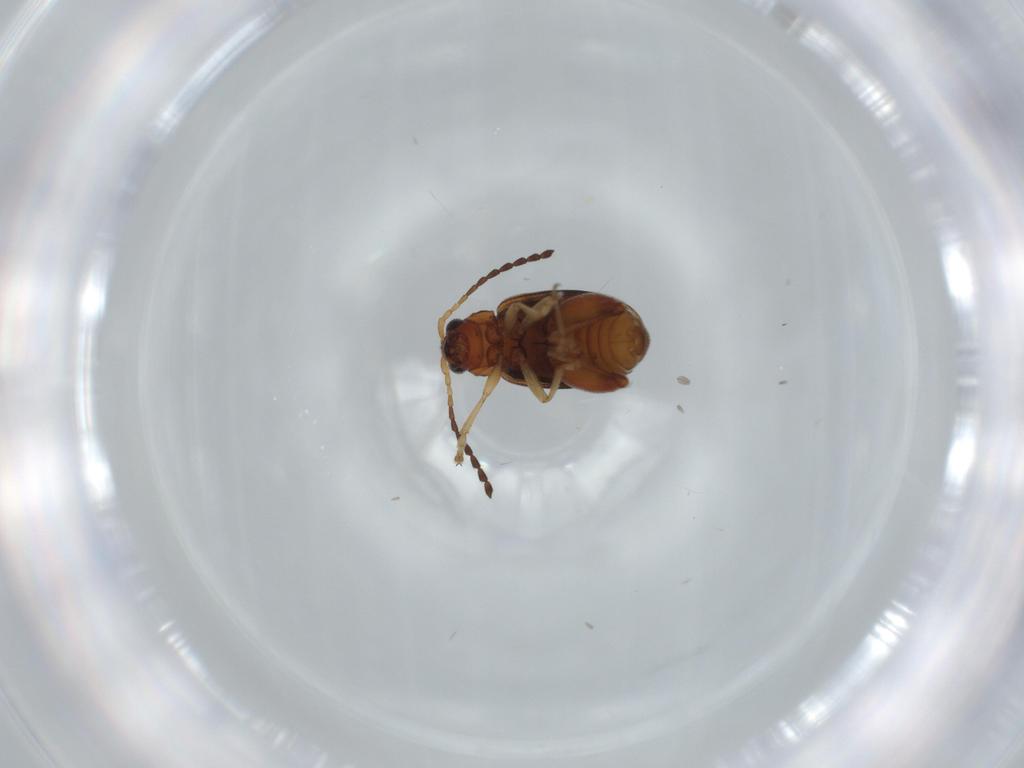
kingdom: Animalia
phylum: Arthropoda
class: Insecta
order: Coleoptera
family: Chrysomelidae
